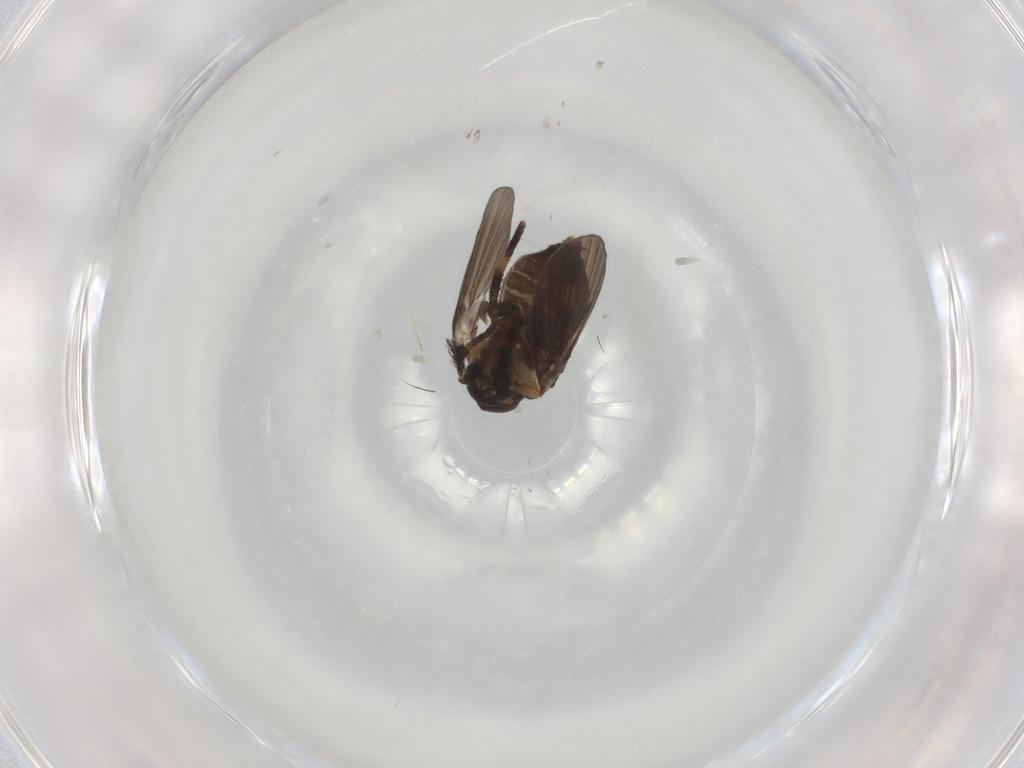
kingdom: Animalia
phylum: Arthropoda
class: Insecta
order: Diptera
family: Sciaridae
